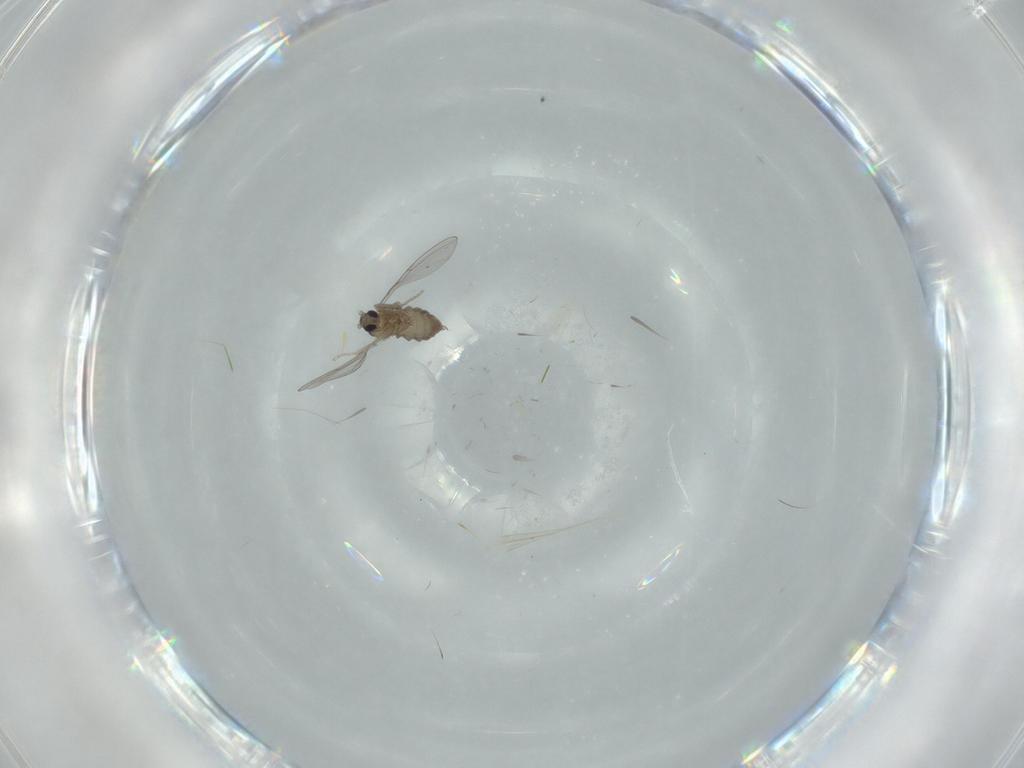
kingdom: Animalia
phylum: Arthropoda
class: Insecta
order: Diptera
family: Cecidomyiidae
